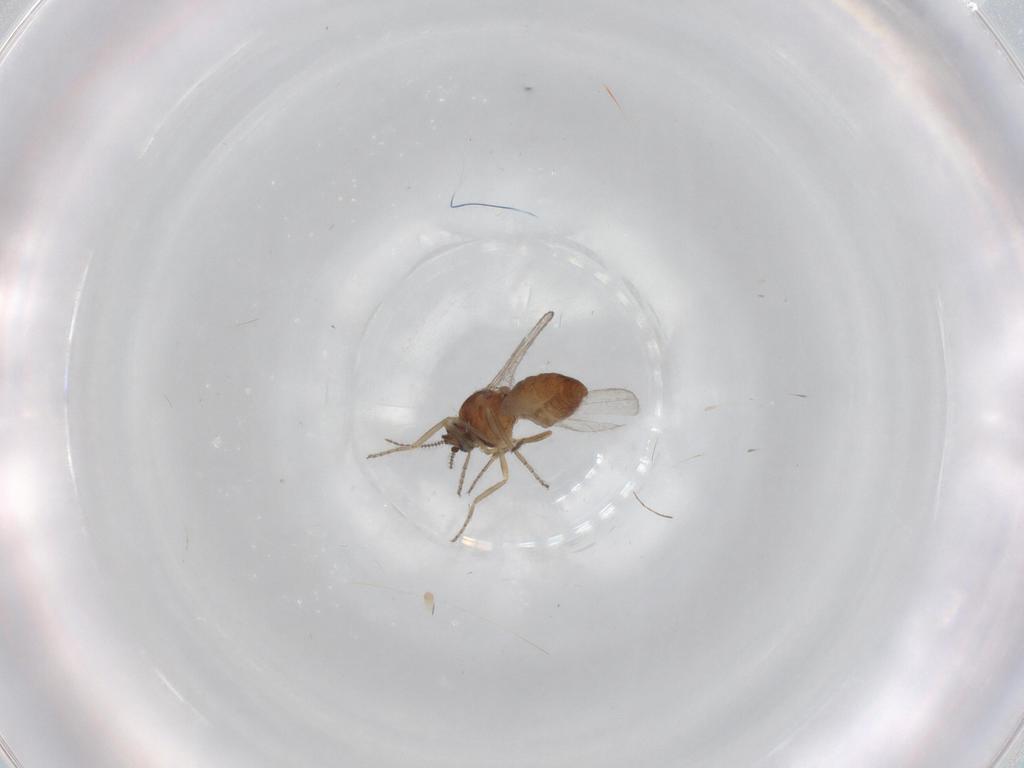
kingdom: Animalia
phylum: Arthropoda
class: Insecta
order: Diptera
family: Ceratopogonidae
